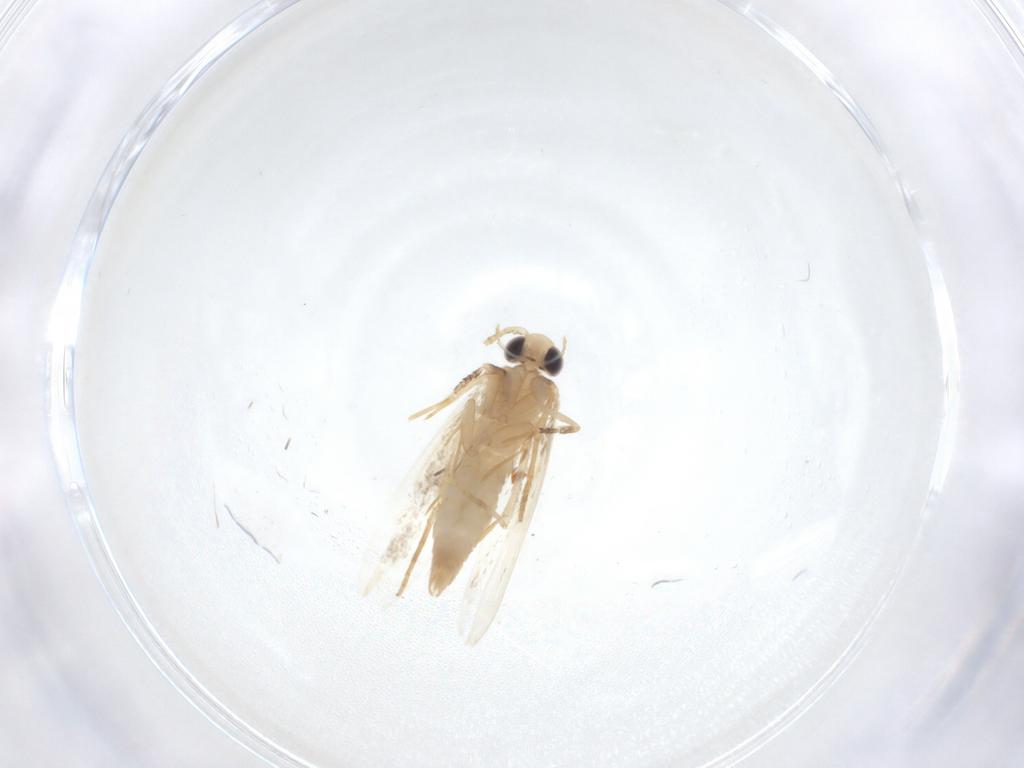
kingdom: Animalia
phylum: Arthropoda
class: Insecta
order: Lepidoptera
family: Tineidae
